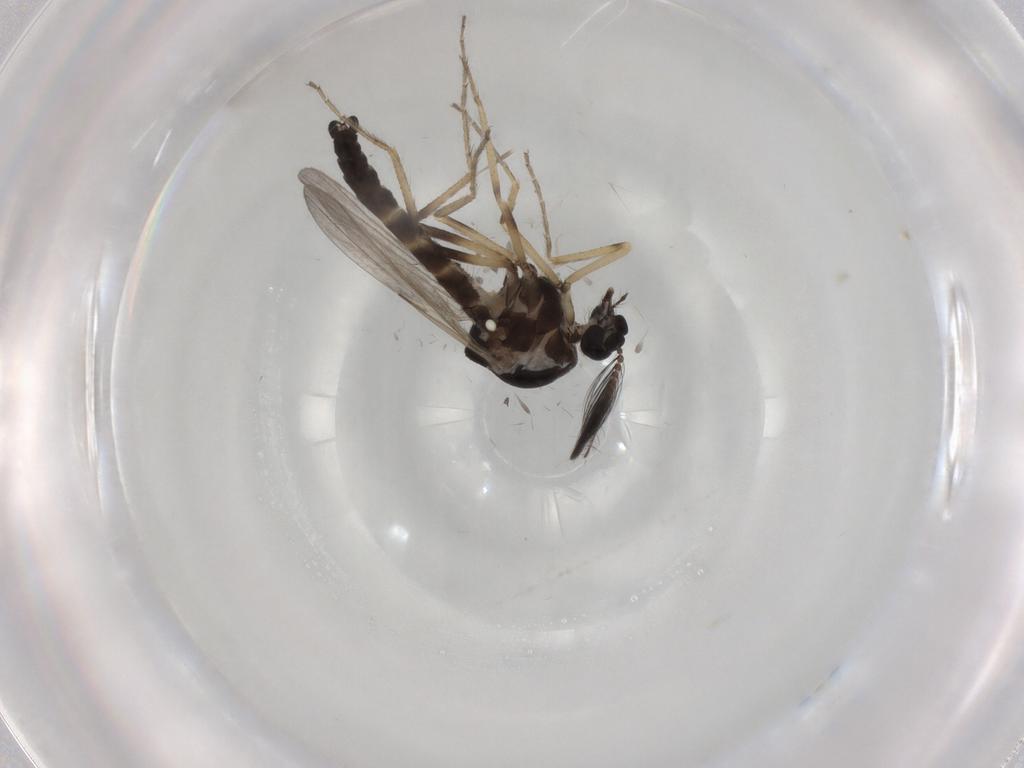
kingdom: Animalia
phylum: Arthropoda
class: Insecta
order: Diptera
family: Ceratopogonidae
